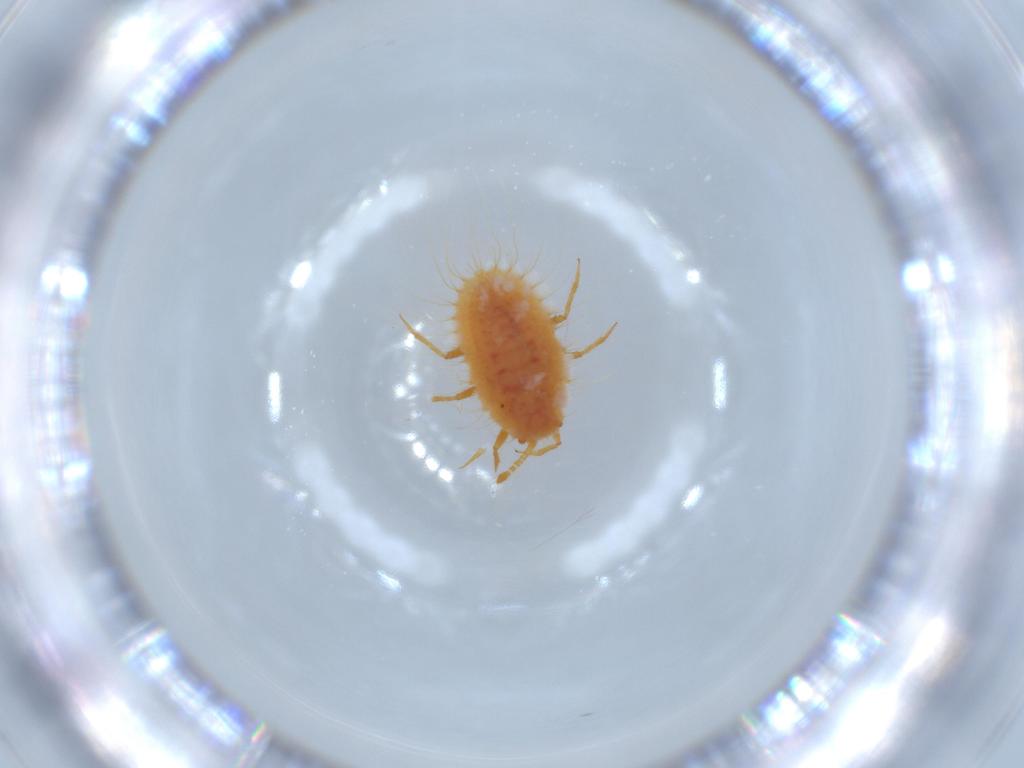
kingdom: Animalia
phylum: Arthropoda
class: Insecta
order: Hemiptera
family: Coccoidea_incertae_sedis
